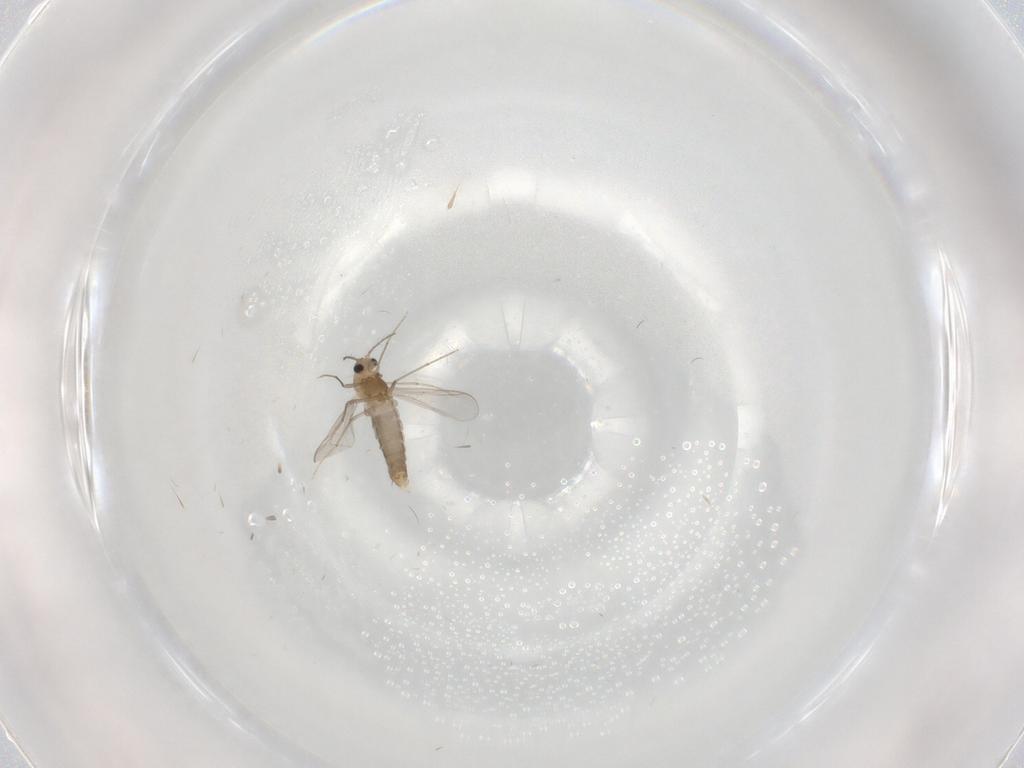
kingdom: Animalia
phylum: Arthropoda
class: Insecta
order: Diptera
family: Chironomidae
